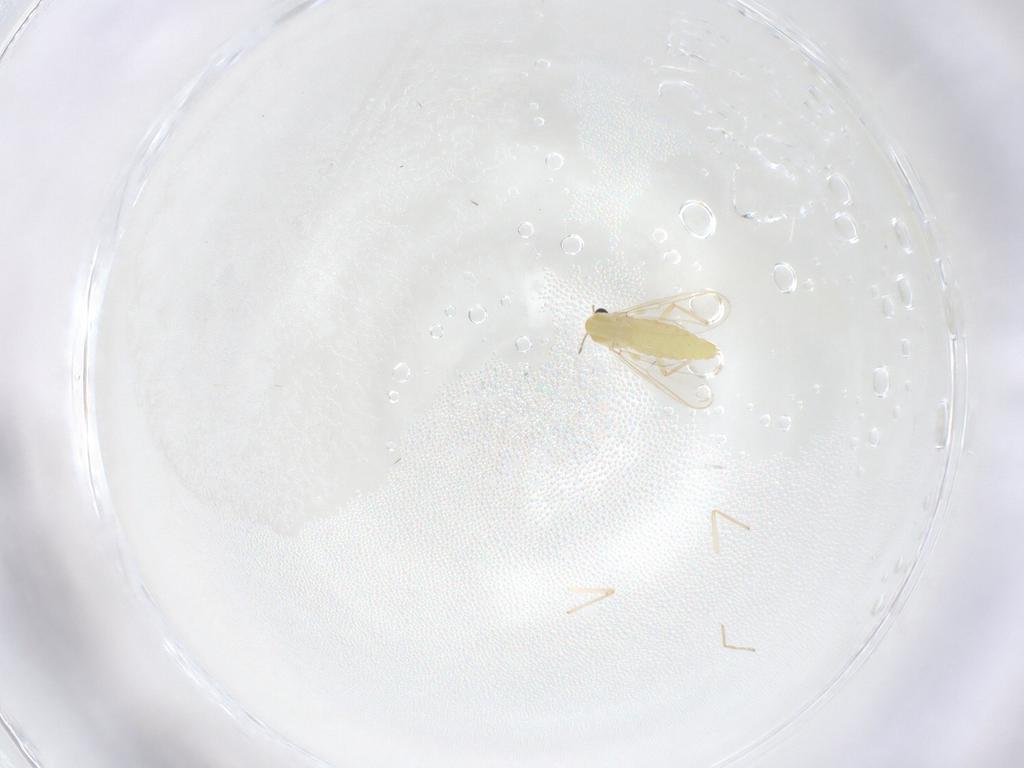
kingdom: Animalia
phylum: Arthropoda
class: Insecta
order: Diptera
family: Chironomidae
